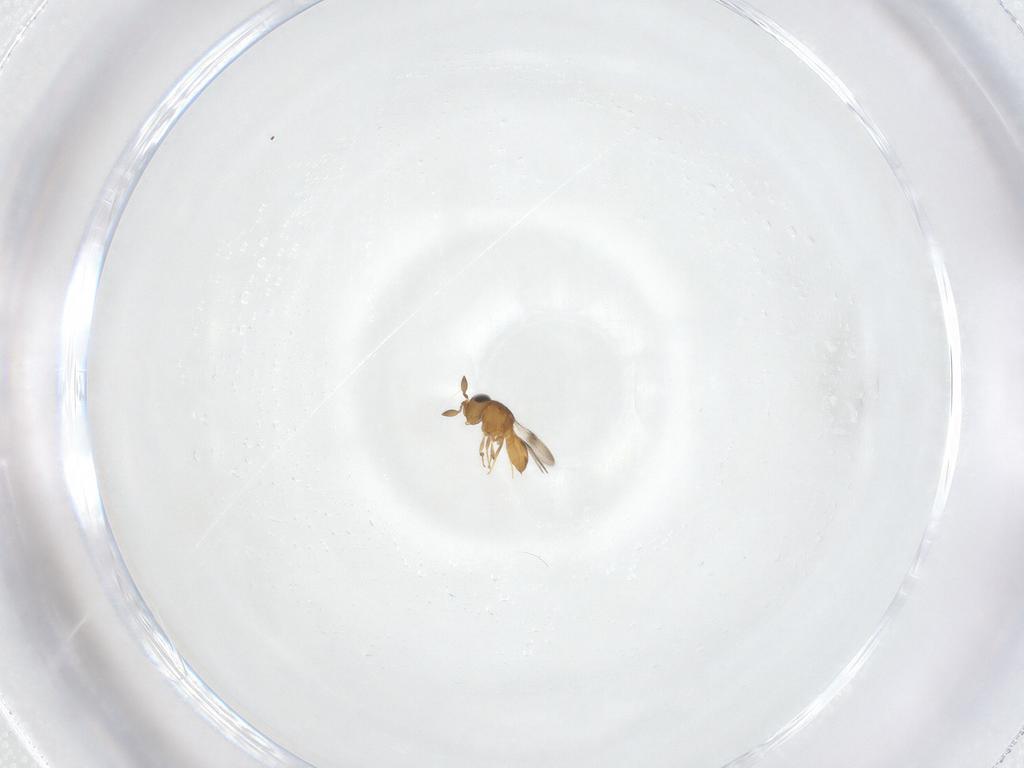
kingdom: Animalia
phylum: Arthropoda
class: Insecta
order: Hymenoptera
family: Scelionidae
